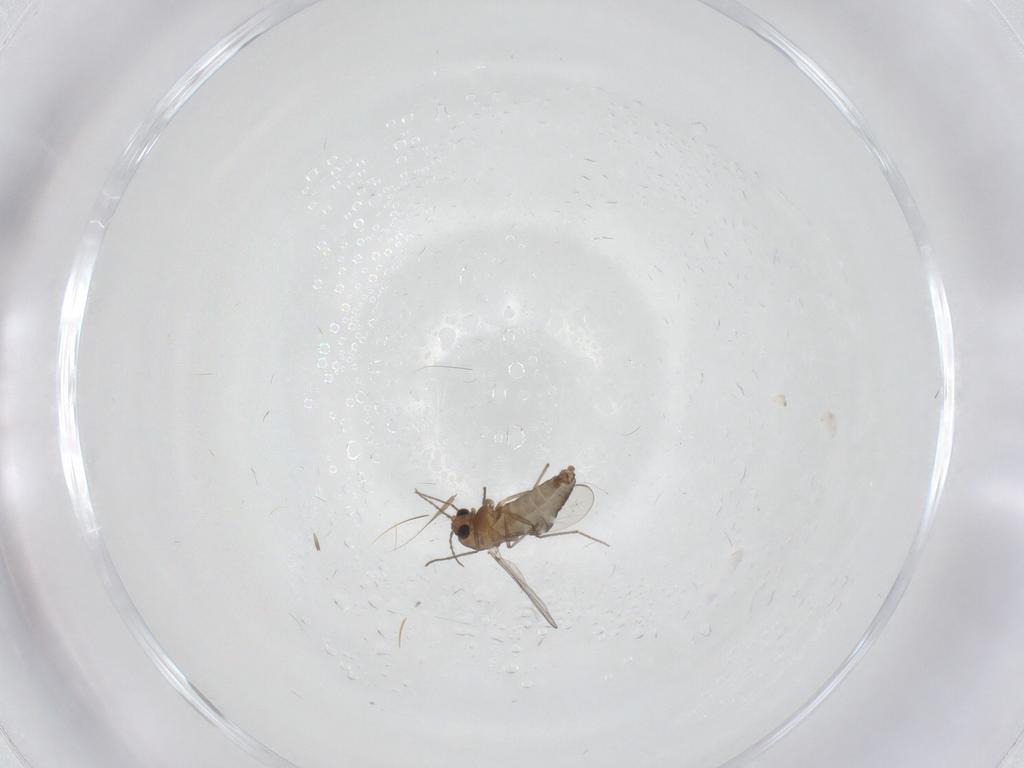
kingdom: Animalia
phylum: Arthropoda
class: Insecta
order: Diptera
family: Chironomidae
